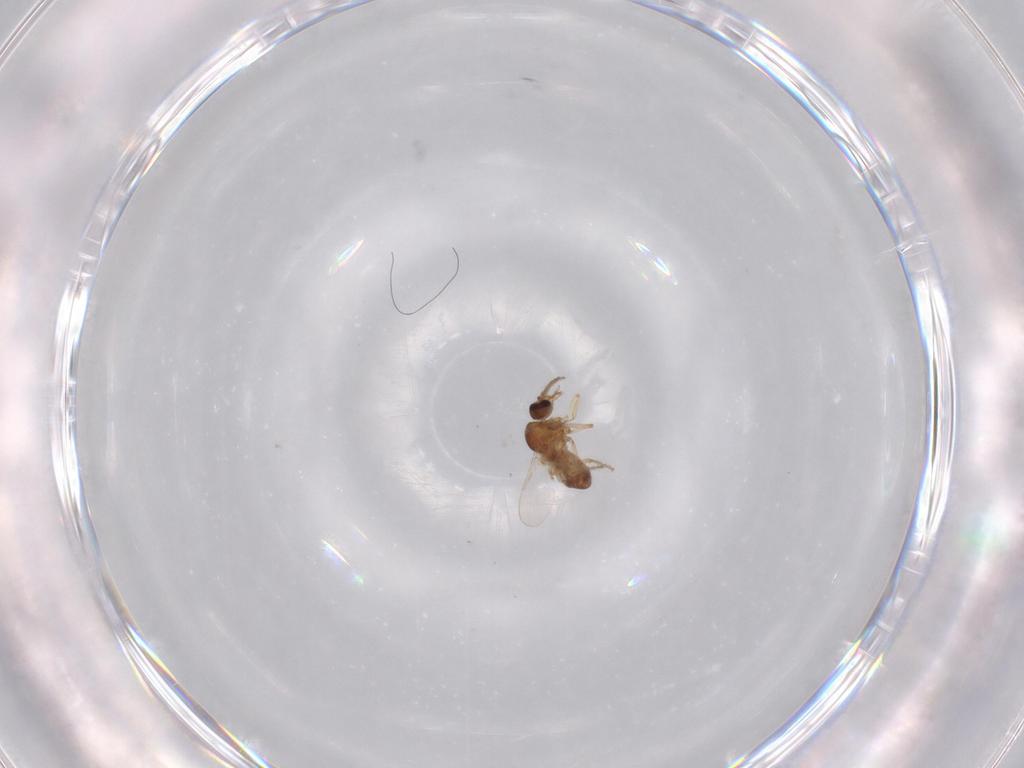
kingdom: Animalia
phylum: Arthropoda
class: Insecta
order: Diptera
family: Ceratopogonidae
